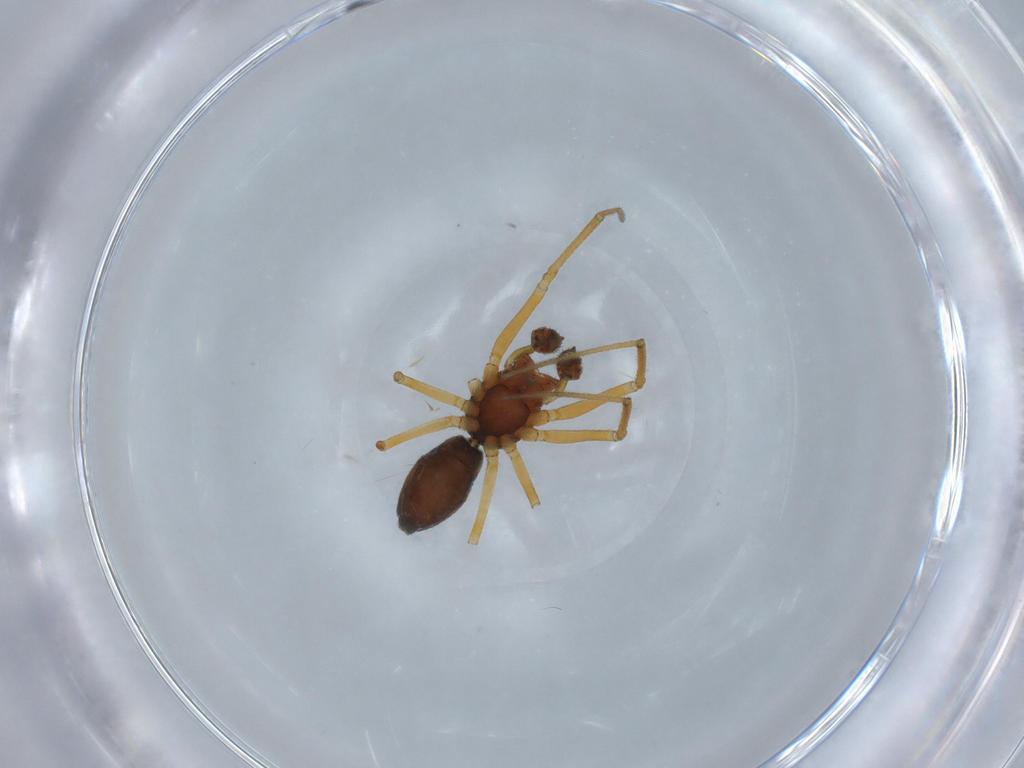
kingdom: Animalia
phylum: Arthropoda
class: Arachnida
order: Araneae
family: Linyphiidae
